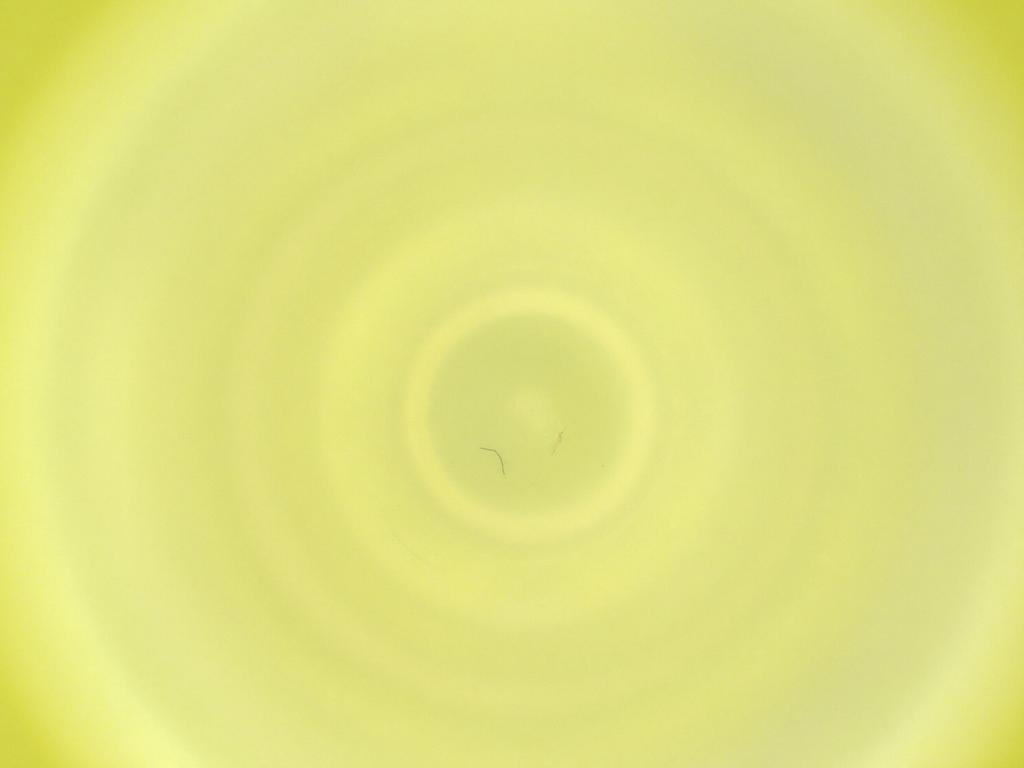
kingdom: Animalia
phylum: Arthropoda
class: Insecta
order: Diptera
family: Cecidomyiidae
